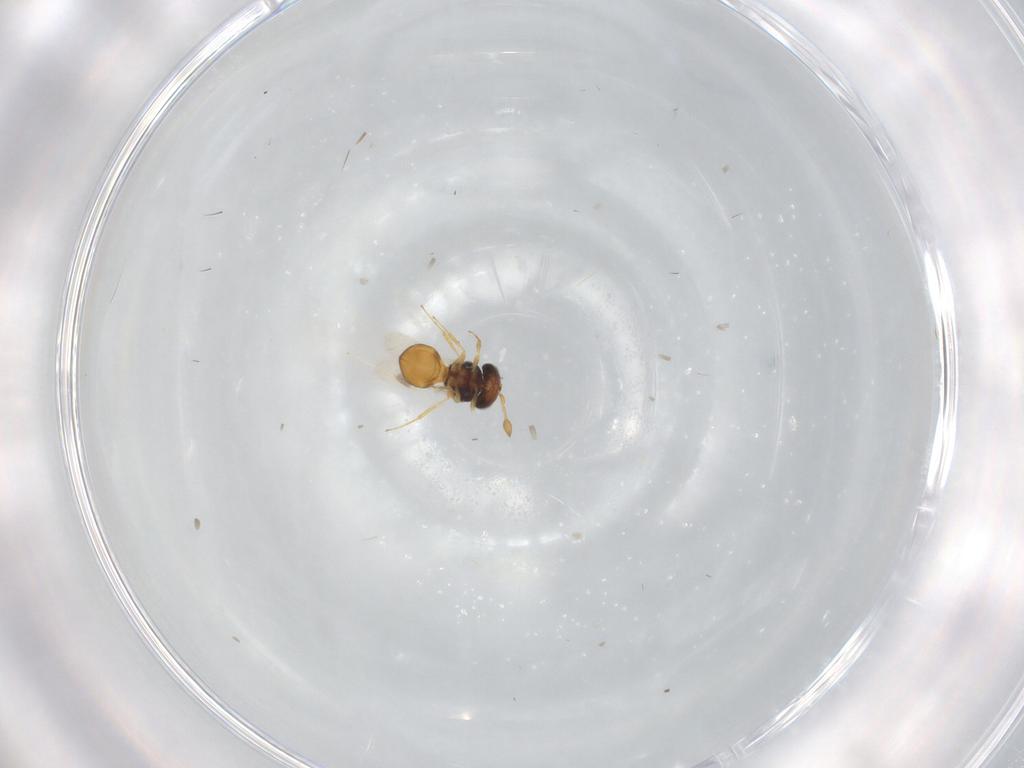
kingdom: Animalia
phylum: Arthropoda
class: Insecta
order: Hymenoptera
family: Scelionidae
